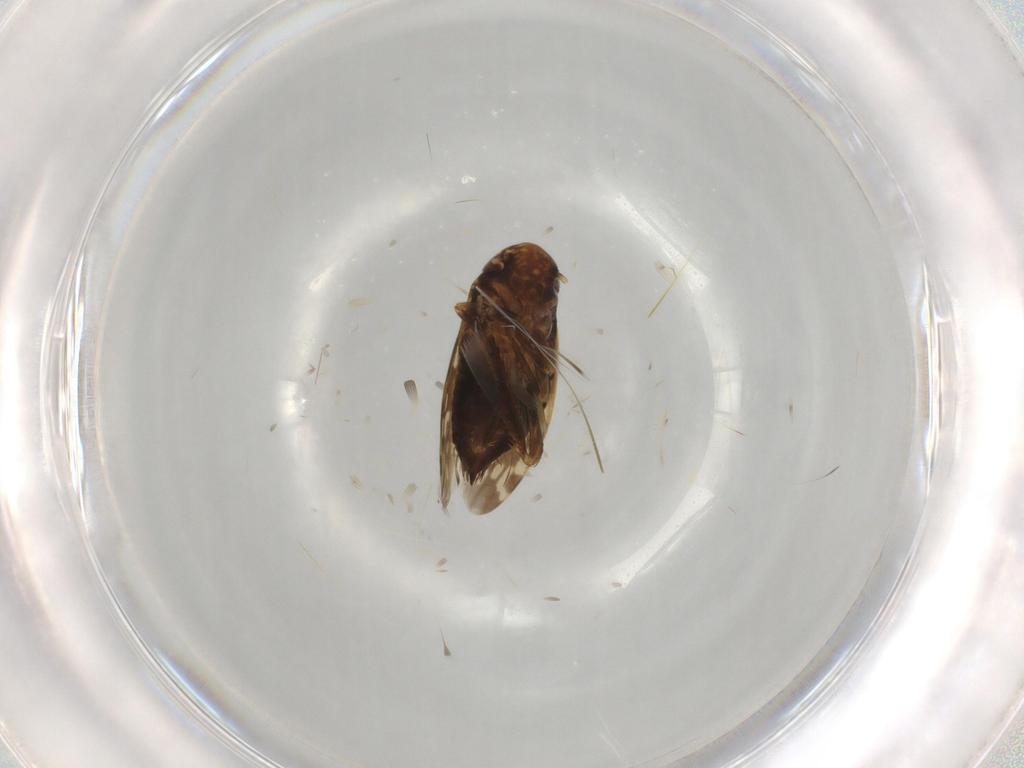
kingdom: Animalia
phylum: Arthropoda
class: Insecta
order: Hemiptera
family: Cicadellidae
